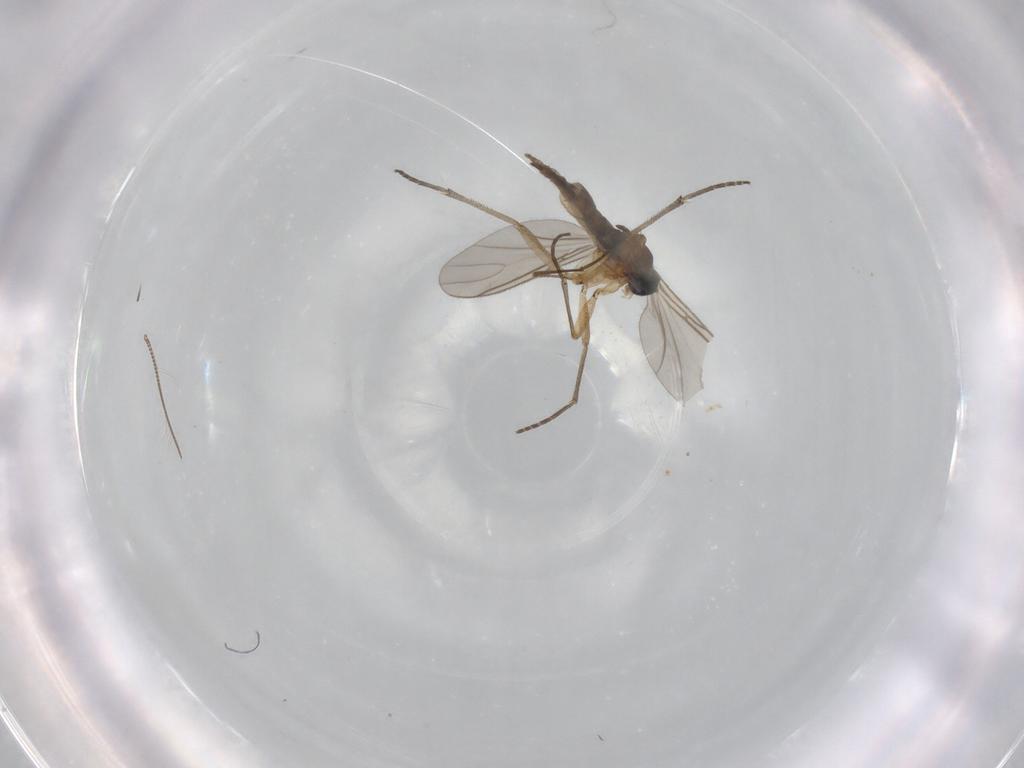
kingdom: Animalia
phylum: Arthropoda
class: Insecta
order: Diptera
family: Sciaridae
